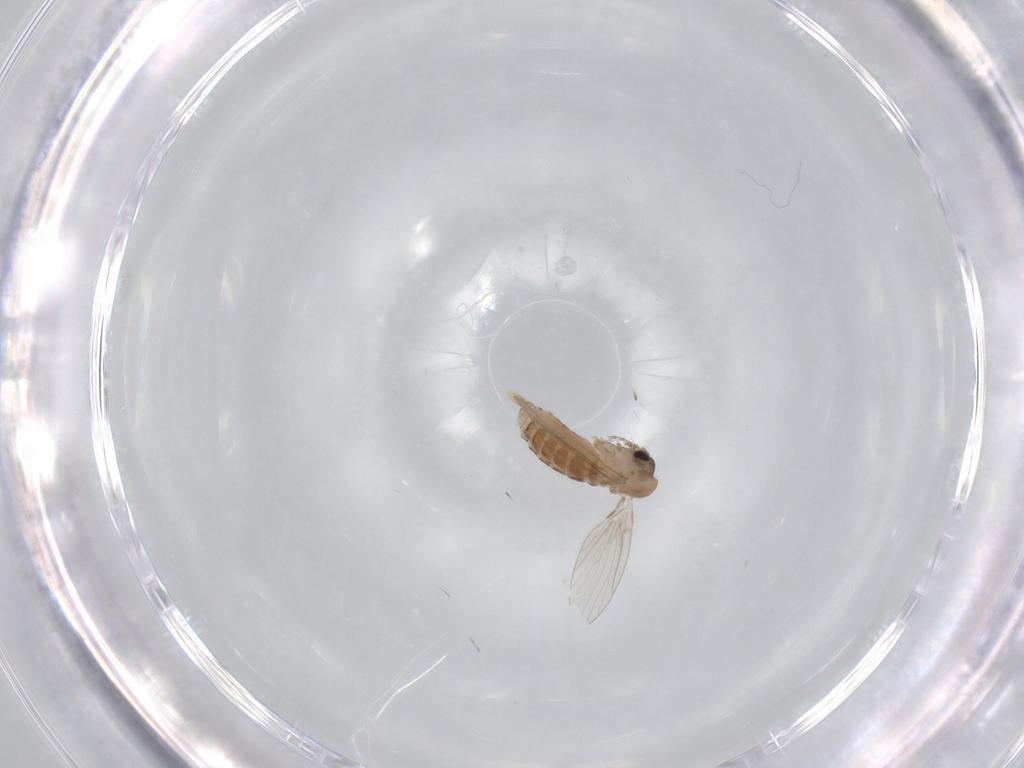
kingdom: Animalia
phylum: Arthropoda
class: Insecta
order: Diptera
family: Psychodidae
